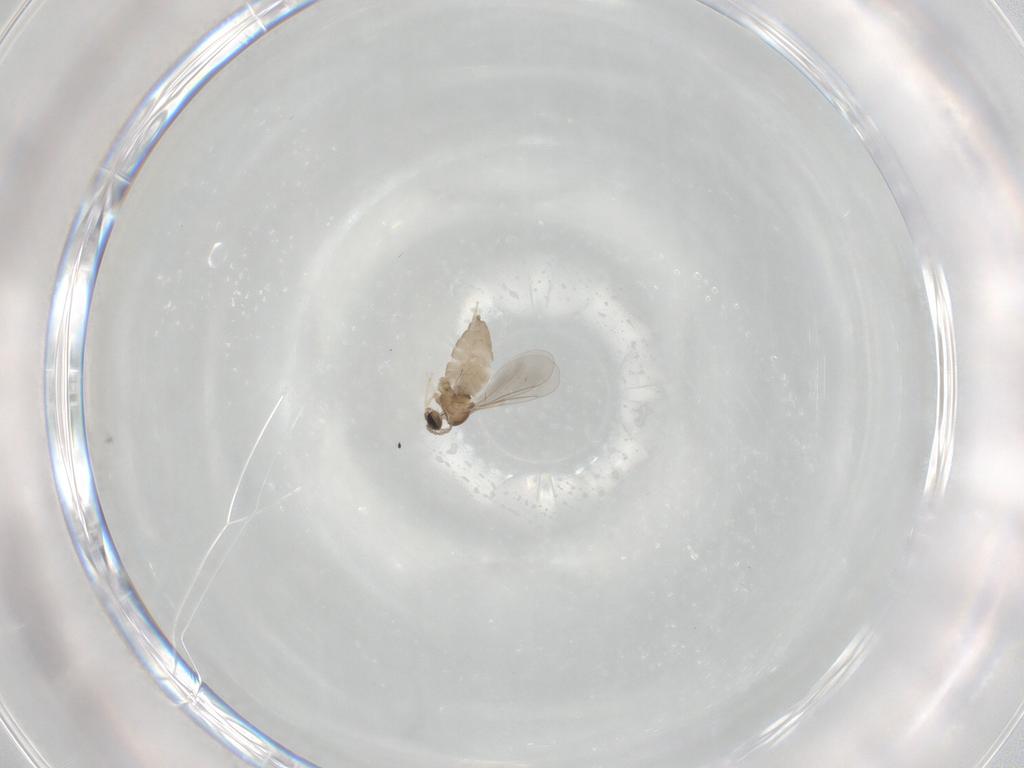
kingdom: Animalia
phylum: Arthropoda
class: Insecta
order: Diptera
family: Cecidomyiidae
